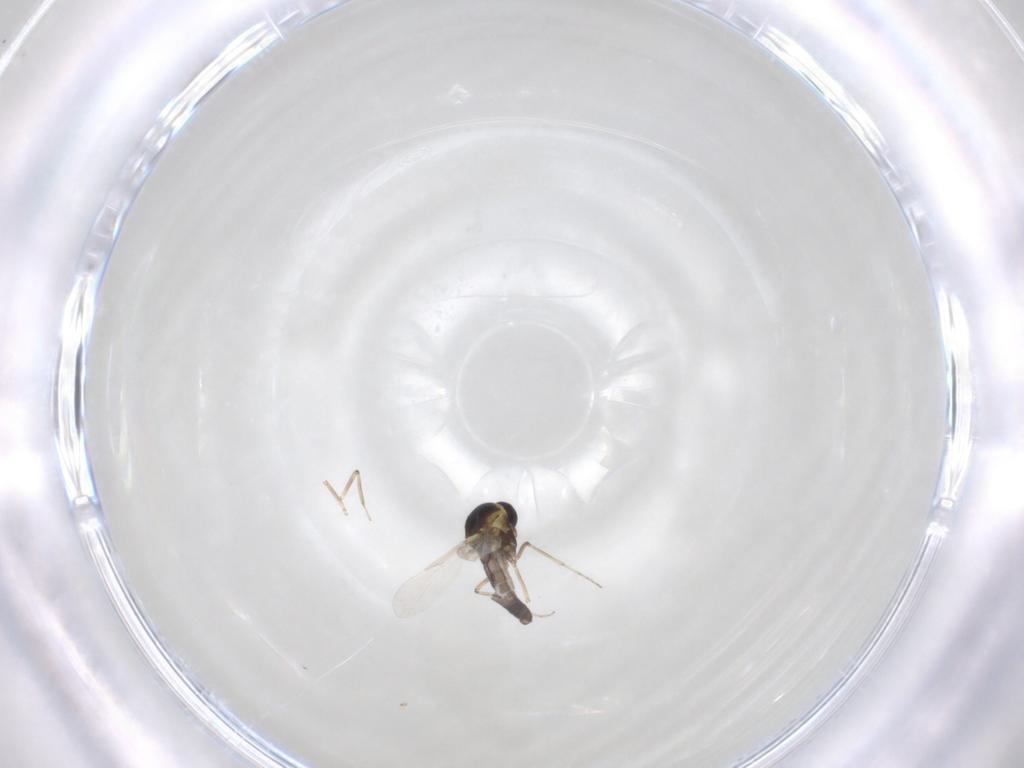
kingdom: Animalia
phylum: Arthropoda
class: Insecta
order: Diptera
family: Ceratopogonidae
